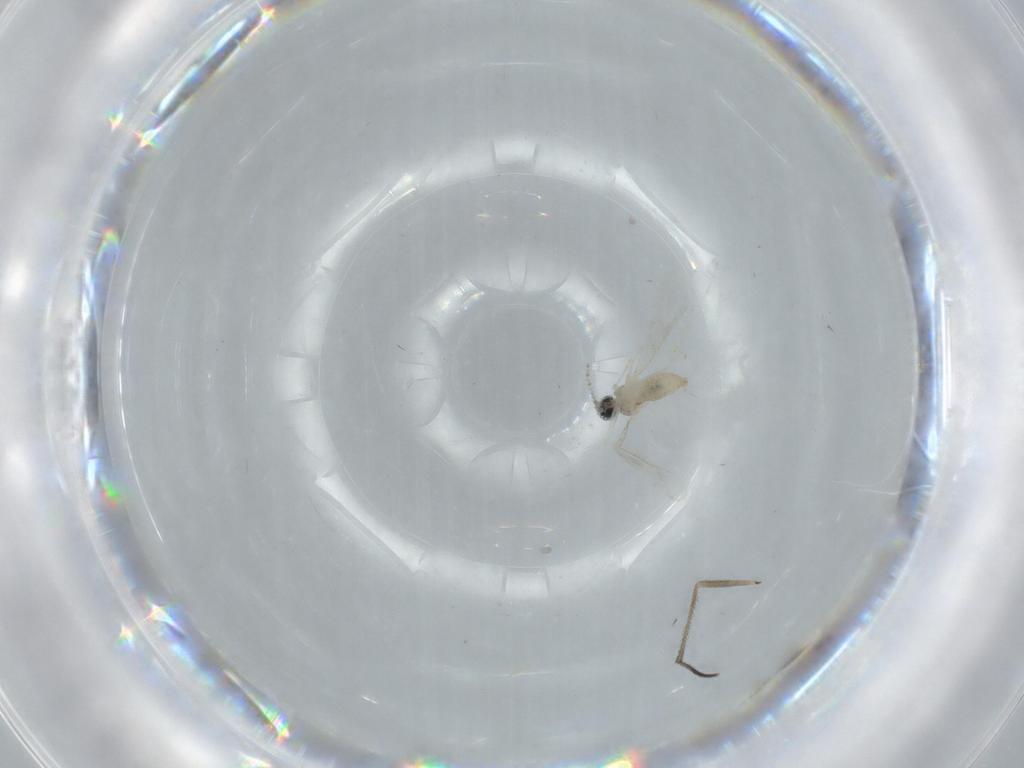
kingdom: Animalia
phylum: Arthropoda
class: Insecta
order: Diptera
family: Cecidomyiidae
